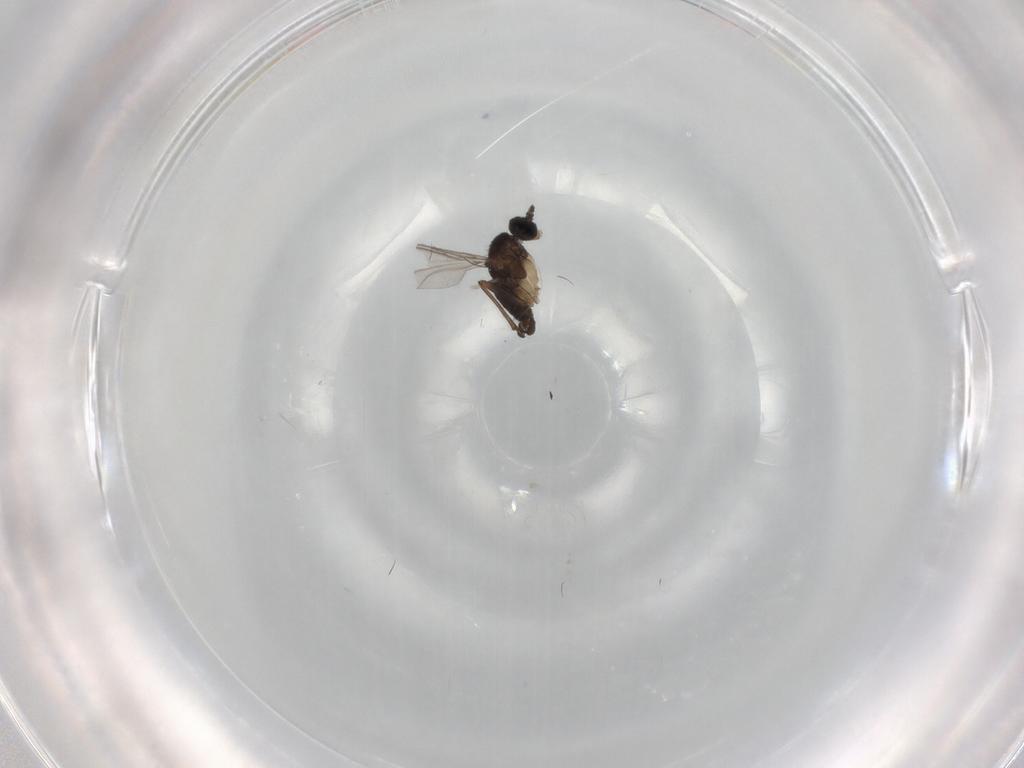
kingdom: Animalia
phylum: Arthropoda
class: Insecta
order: Diptera
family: Sciaridae
